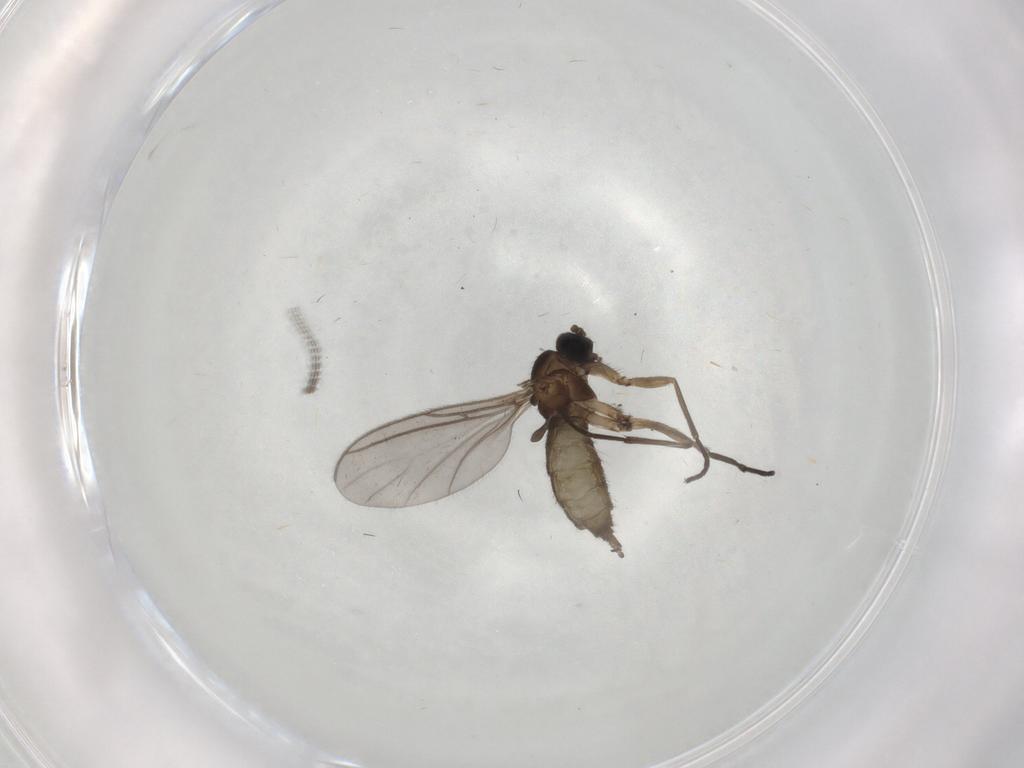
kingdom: Animalia
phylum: Arthropoda
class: Insecta
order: Diptera
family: Sciaridae
